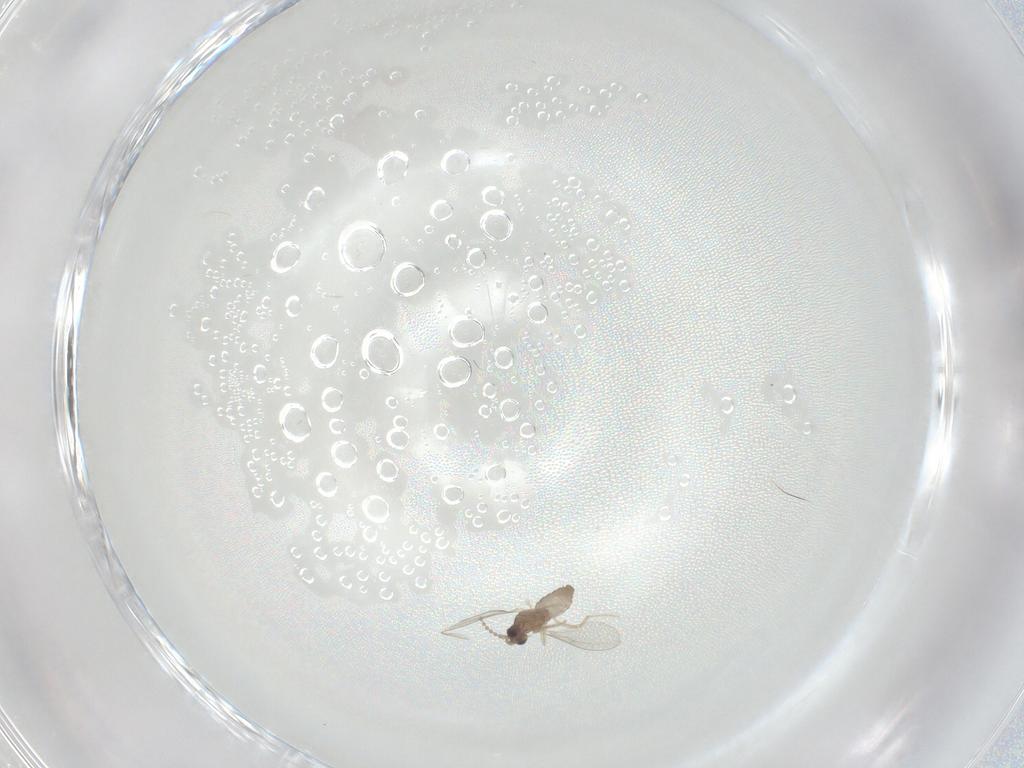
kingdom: Animalia
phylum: Arthropoda
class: Insecta
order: Diptera
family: Cecidomyiidae
